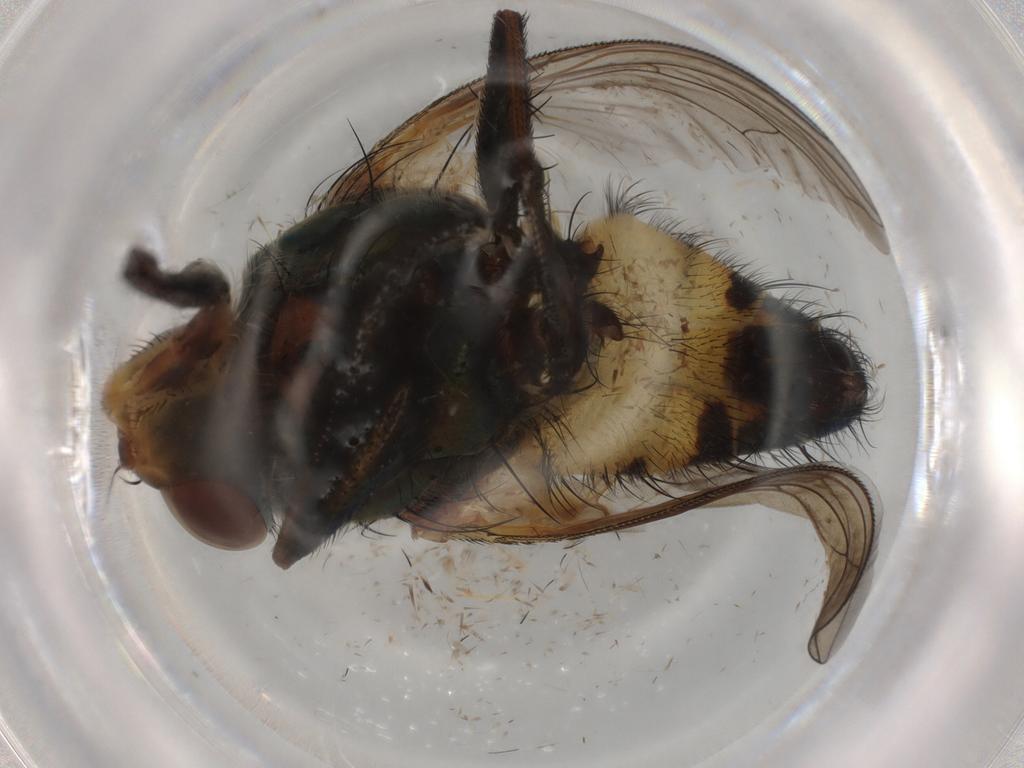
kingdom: Animalia
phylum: Arthropoda
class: Insecta
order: Diptera
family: Calliphoridae
